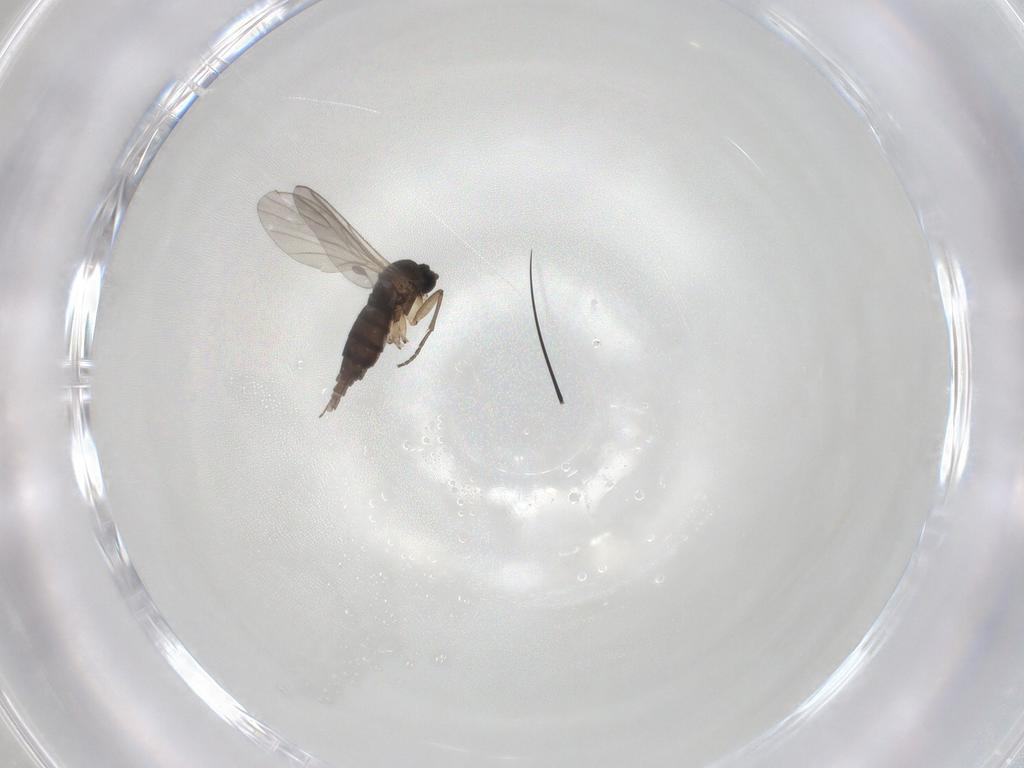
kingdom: Animalia
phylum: Arthropoda
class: Insecta
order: Diptera
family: Sciaridae
